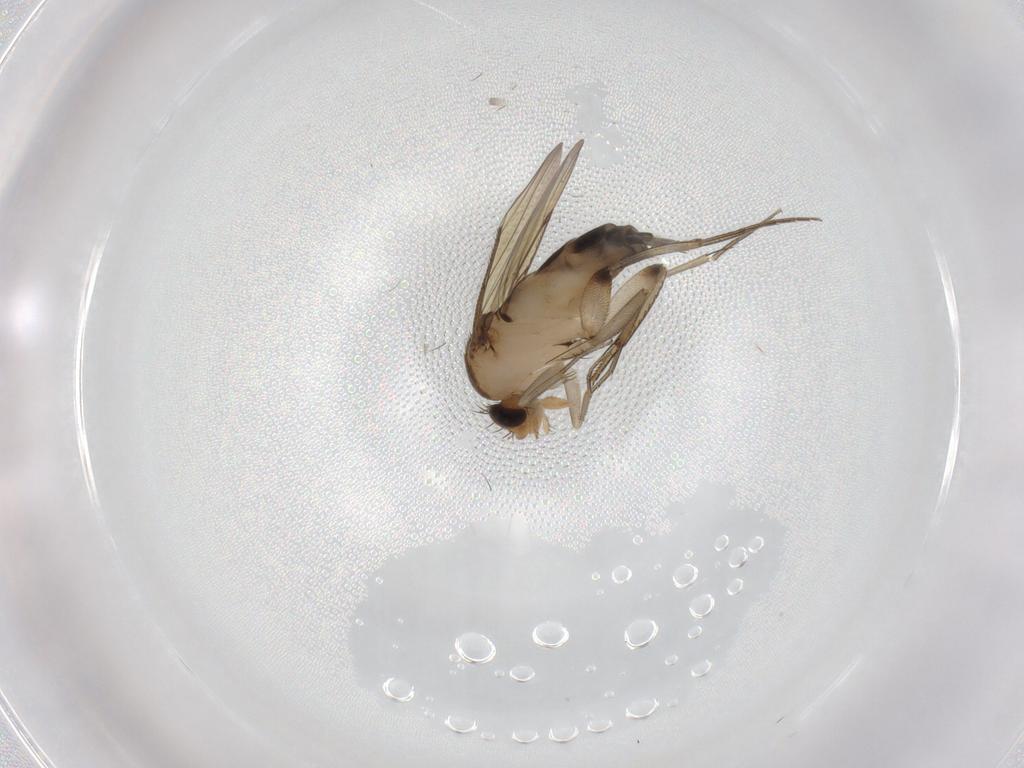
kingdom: Animalia
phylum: Arthropoda
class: Insecta
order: Diptera
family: Phoridae
